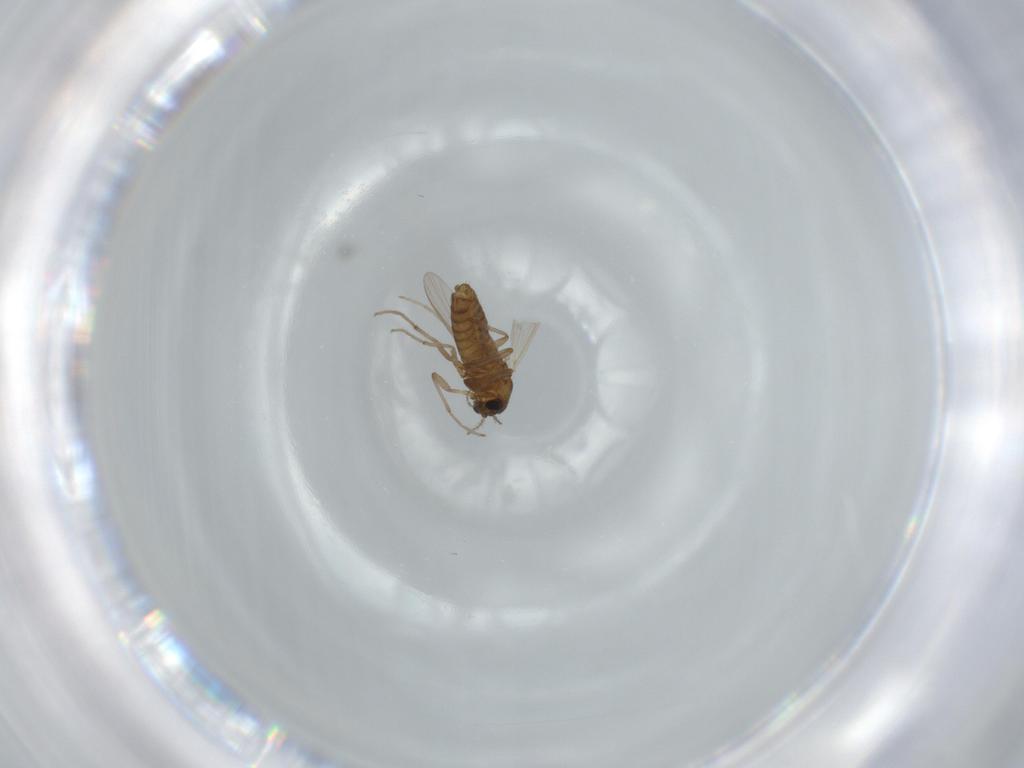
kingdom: Animalia
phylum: Arthropoda
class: Insecta
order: Diptera
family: Chironomidae
